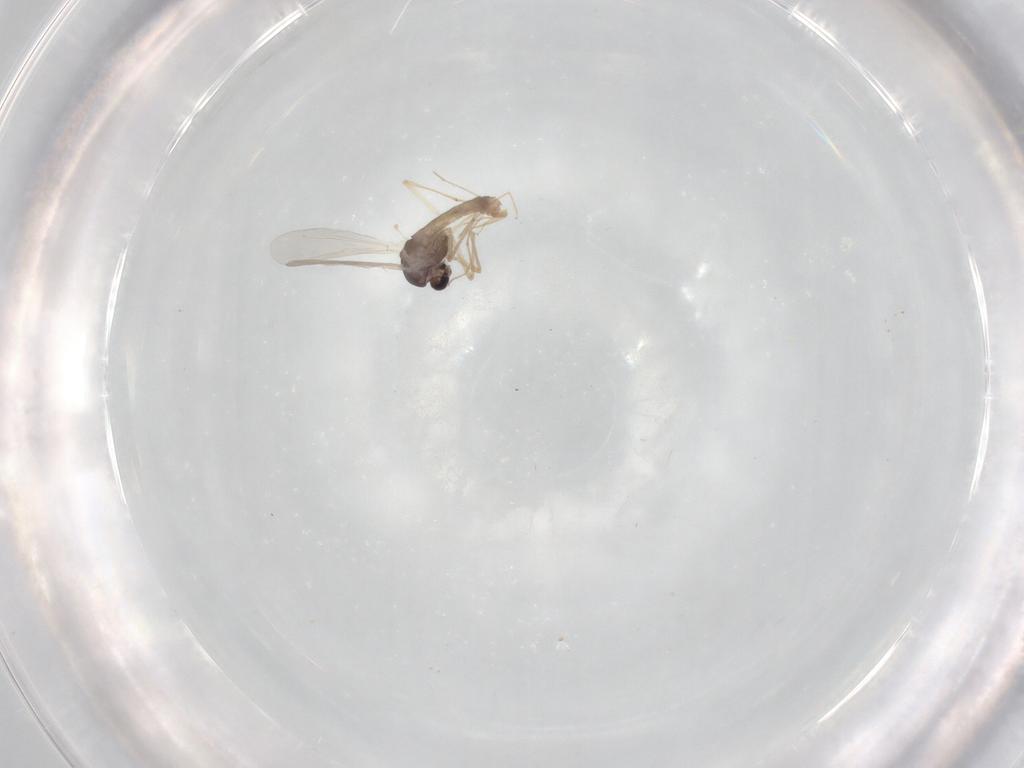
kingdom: Animalia
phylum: Arthropoda
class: Insecta
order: Diptera
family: Chironomidae
